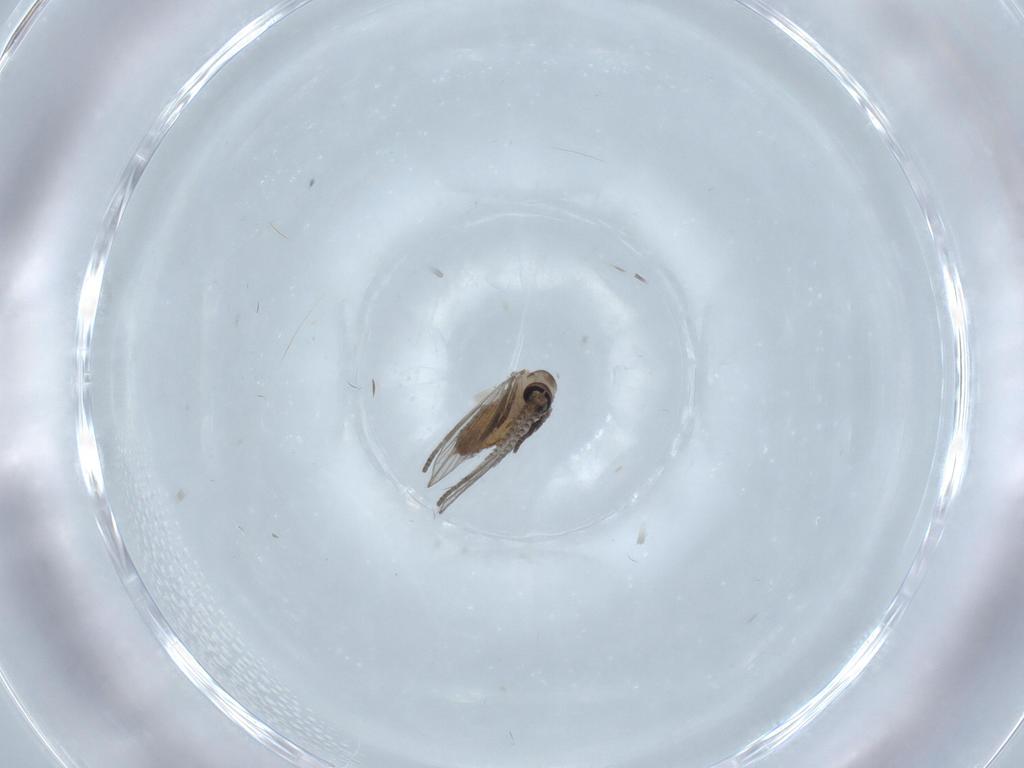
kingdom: Animalia
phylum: Arthropoda
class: Insecta
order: Diptera
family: Psychodidae
